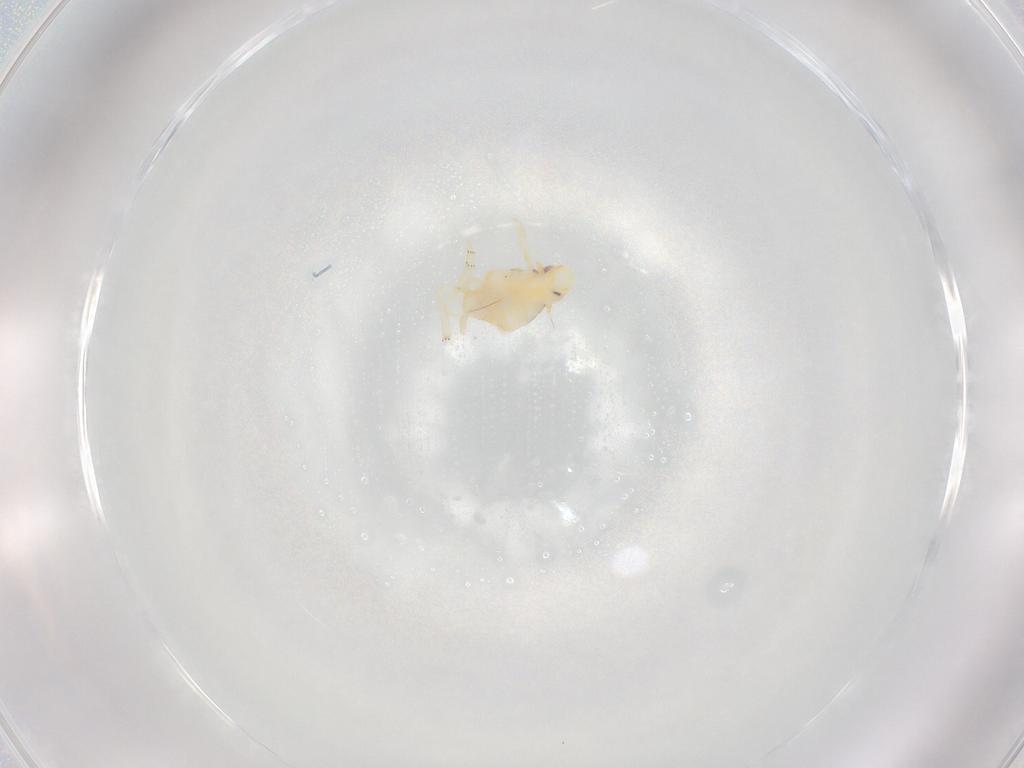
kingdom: Animalia
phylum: Arthropoda
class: Insecta
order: Hemiptera
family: Flatidae
